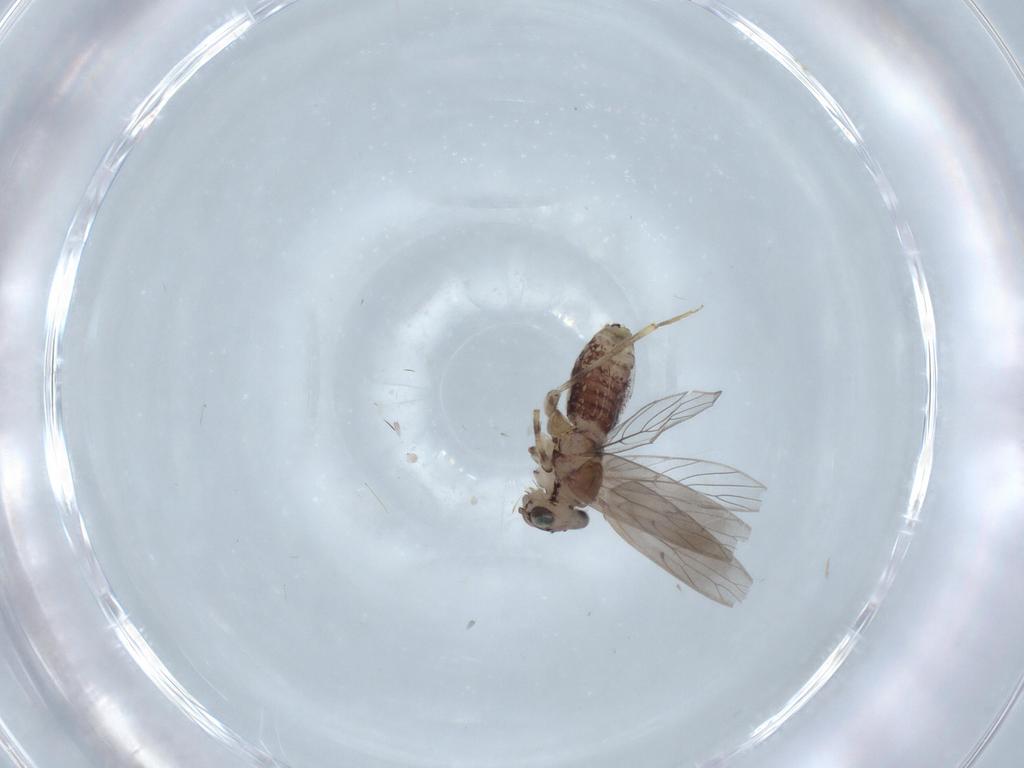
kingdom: Animalia
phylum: Arthropoda
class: Insecta
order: Psocodea
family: Lepidopsocidae
